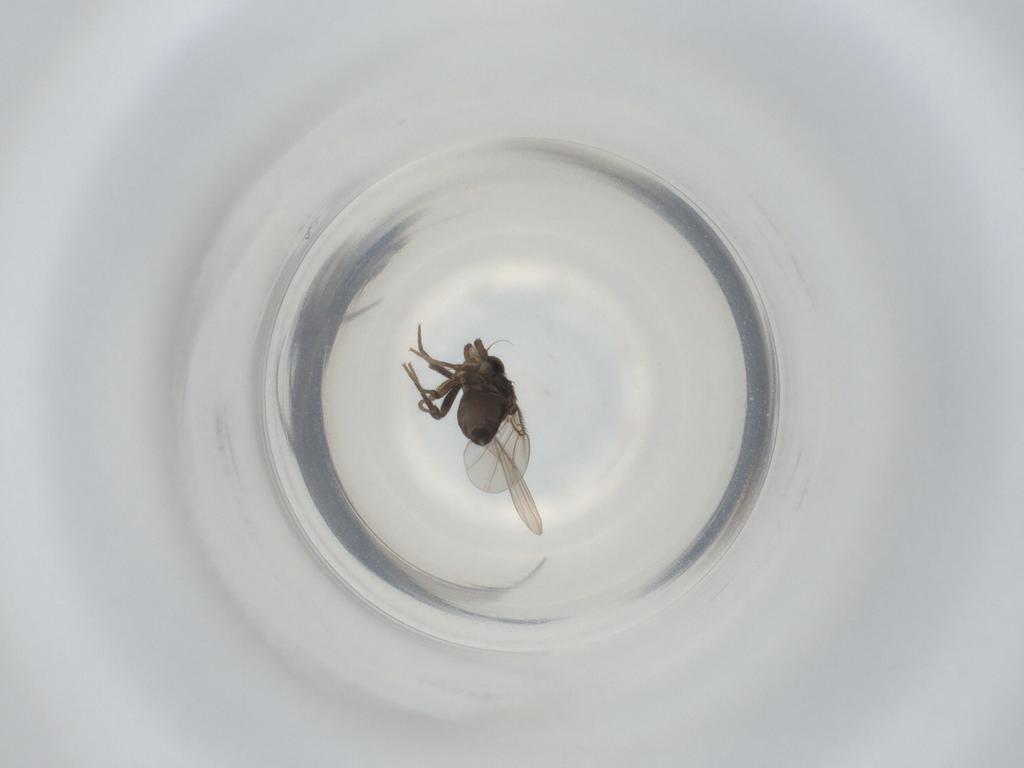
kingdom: Animalia
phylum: Arthropoda
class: Insecta
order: Diptera
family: Phoridae
